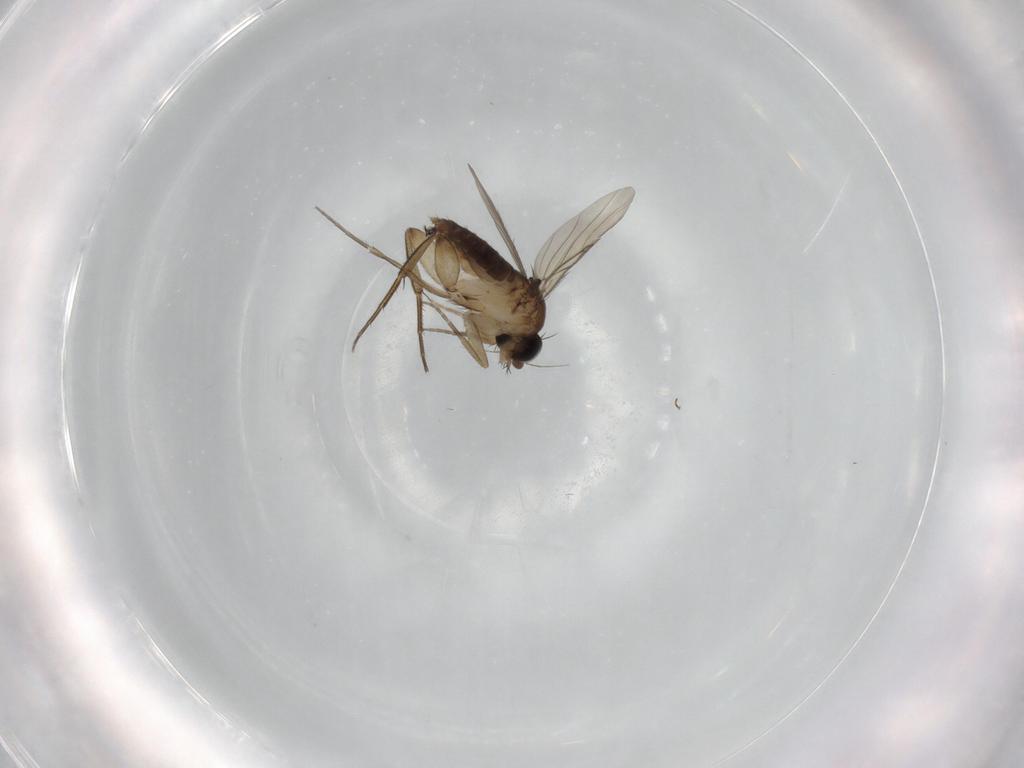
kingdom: Animalia
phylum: Arthropoda
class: Insecta
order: Diptera
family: Phoridae
